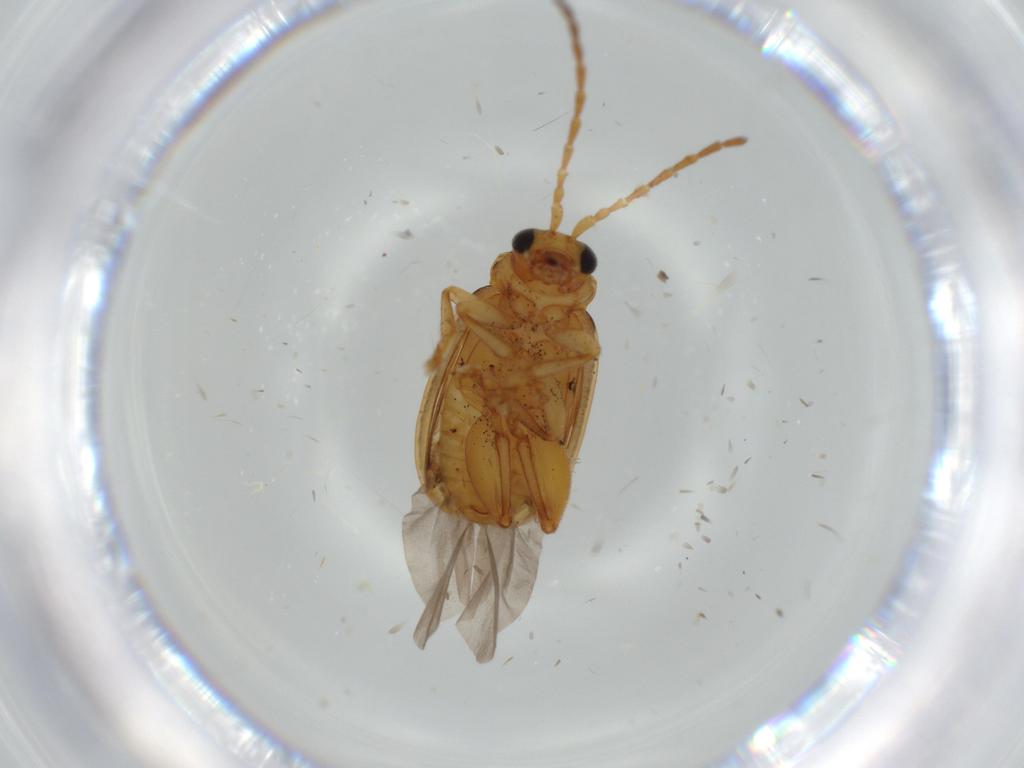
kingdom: Animalia
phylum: Arthropoda
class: Insecta
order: Coleoptera
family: Chrysomelidae
